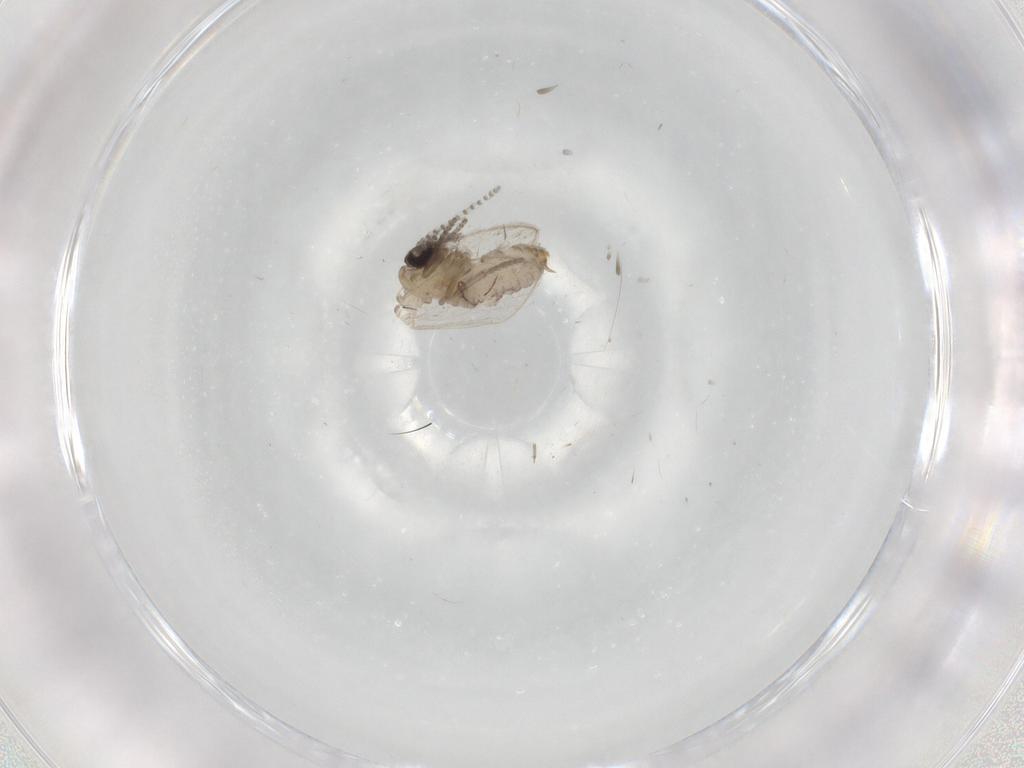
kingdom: Animalia
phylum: Arthropoda
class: Insecta
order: Diptera
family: Psychodidae
